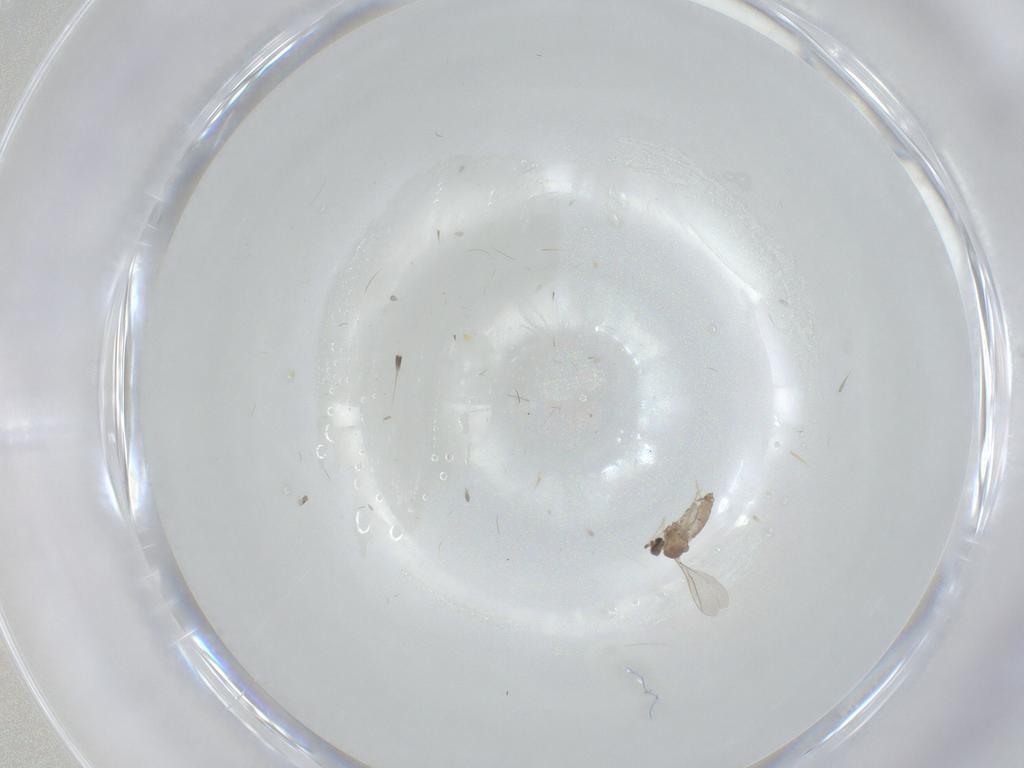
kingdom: Animalia
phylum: Arthropoda
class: Insecta
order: Diptera
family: Cecidomyiidae
